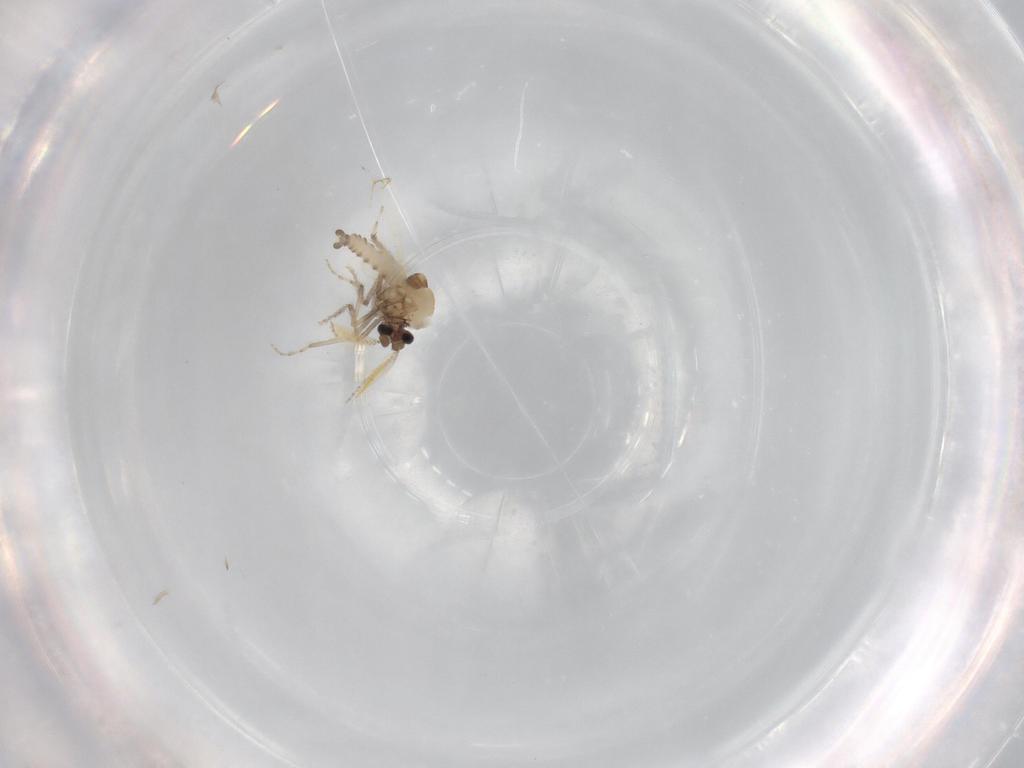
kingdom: Animalia
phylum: Arthropoda
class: Insecta
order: Diptera
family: Ceratopogonidae
